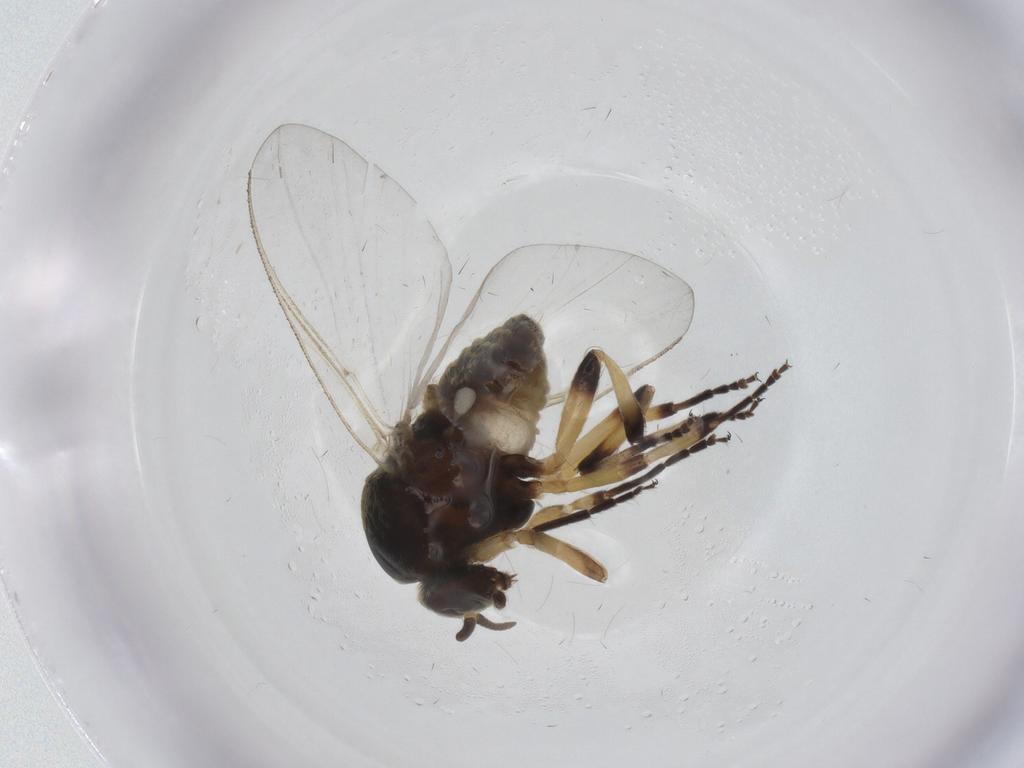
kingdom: Animalia
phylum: Arthropoda
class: Insecta
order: Diptera
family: Simuliidae
